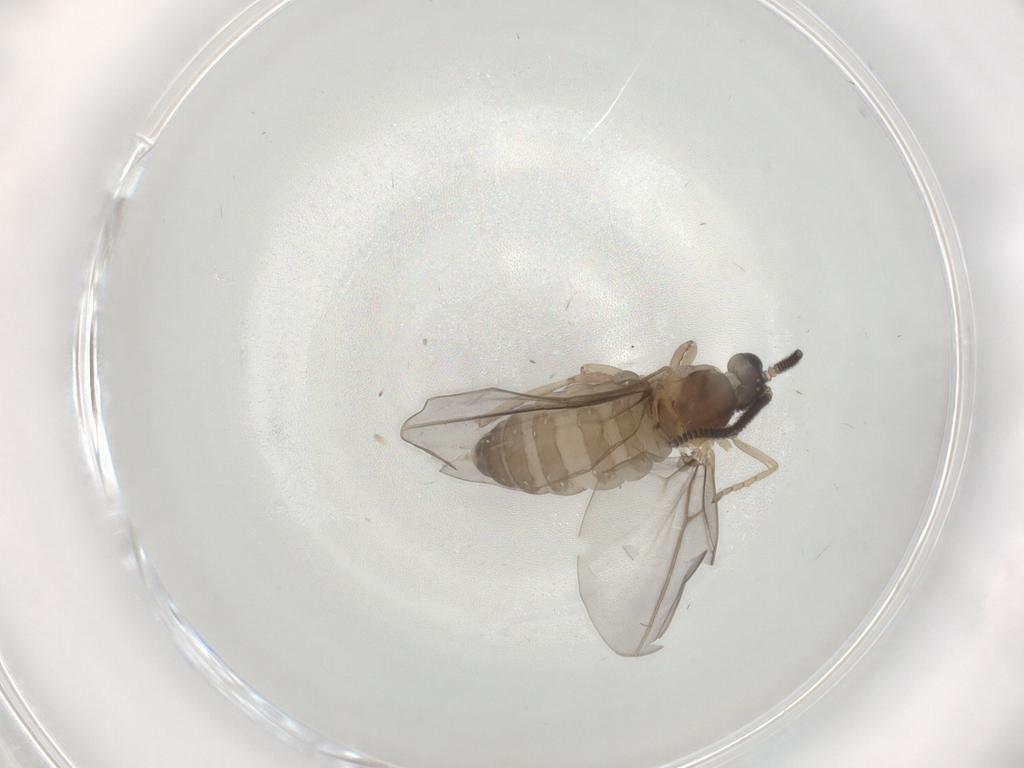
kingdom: Animalia
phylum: Arthropoda
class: Insecta
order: Diptera
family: Cecidomyiidae
